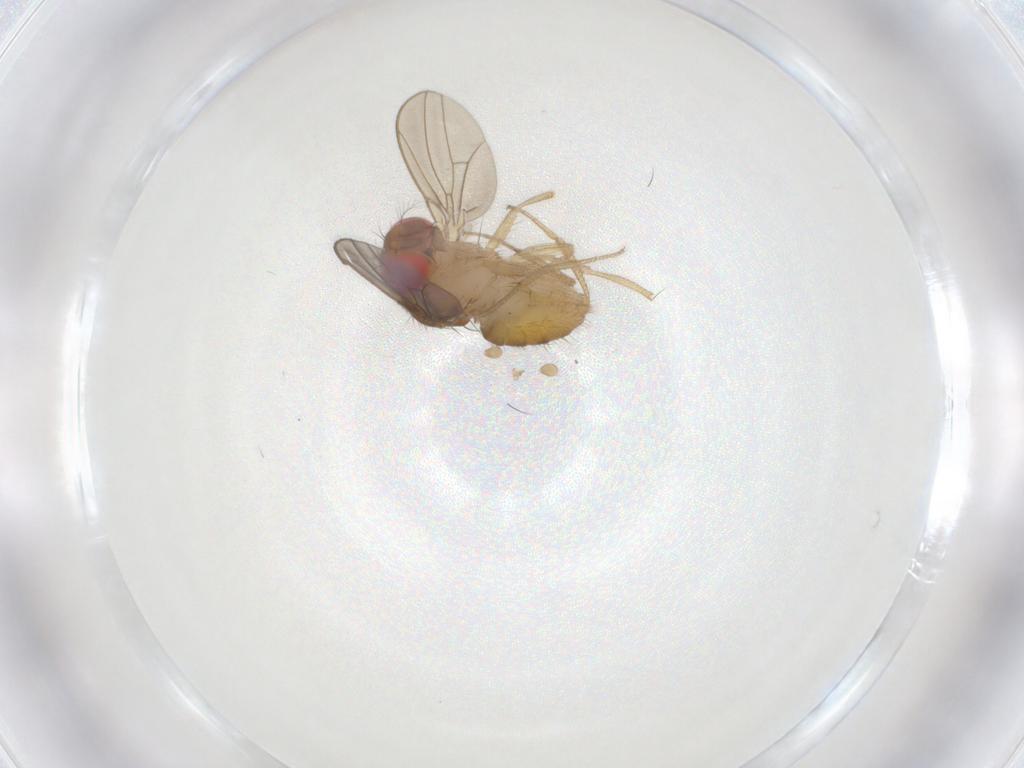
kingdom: Animalia
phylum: Arthropoda
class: Insecta
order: Diptera
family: Drosophilidae
